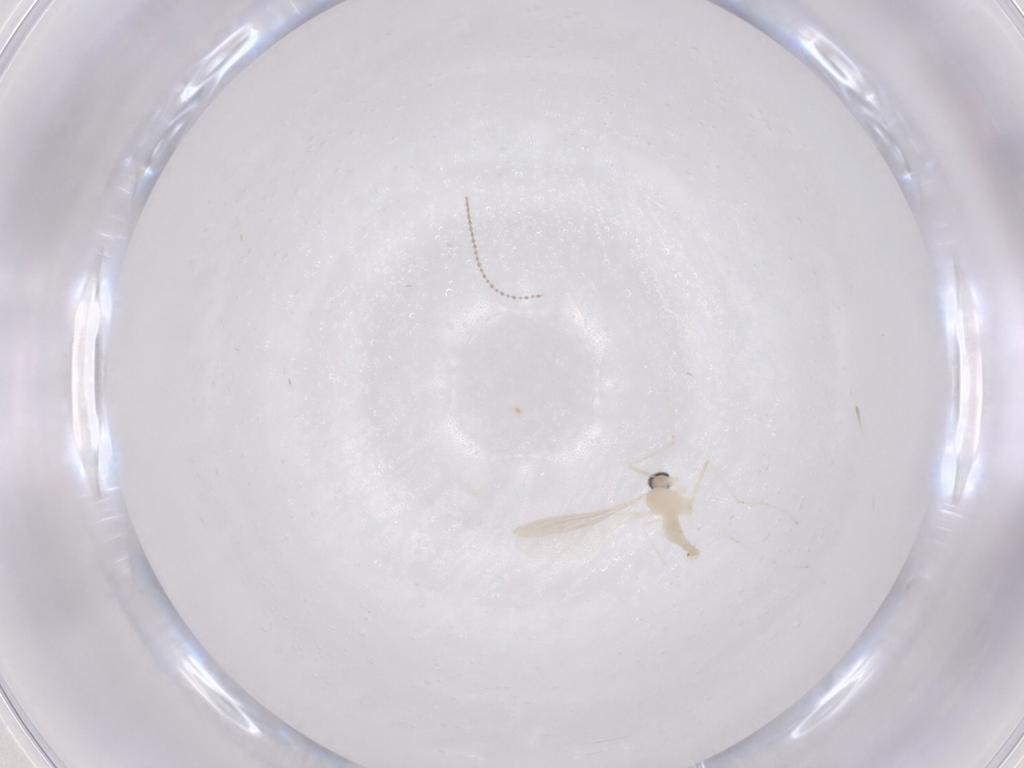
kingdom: Animalia
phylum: Arthropoda
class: Insecta
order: Diptera
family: Cecidomyiidae
